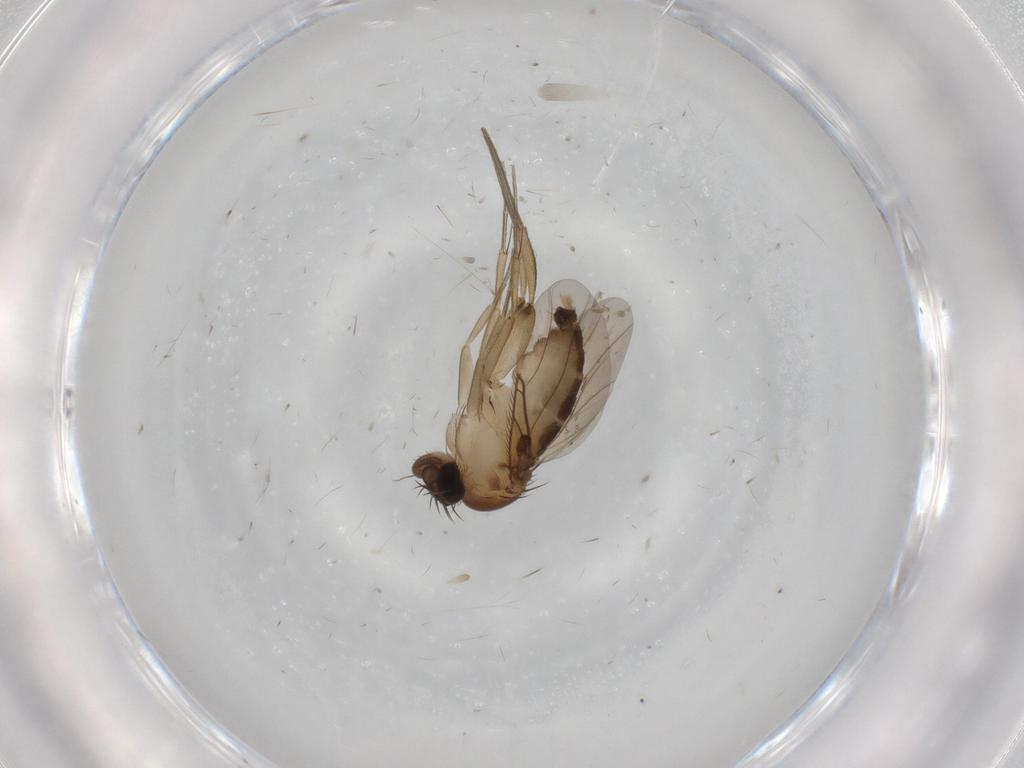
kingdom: Animalia
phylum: Arthropoda
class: Insecta
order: Diptera
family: Phoridae
